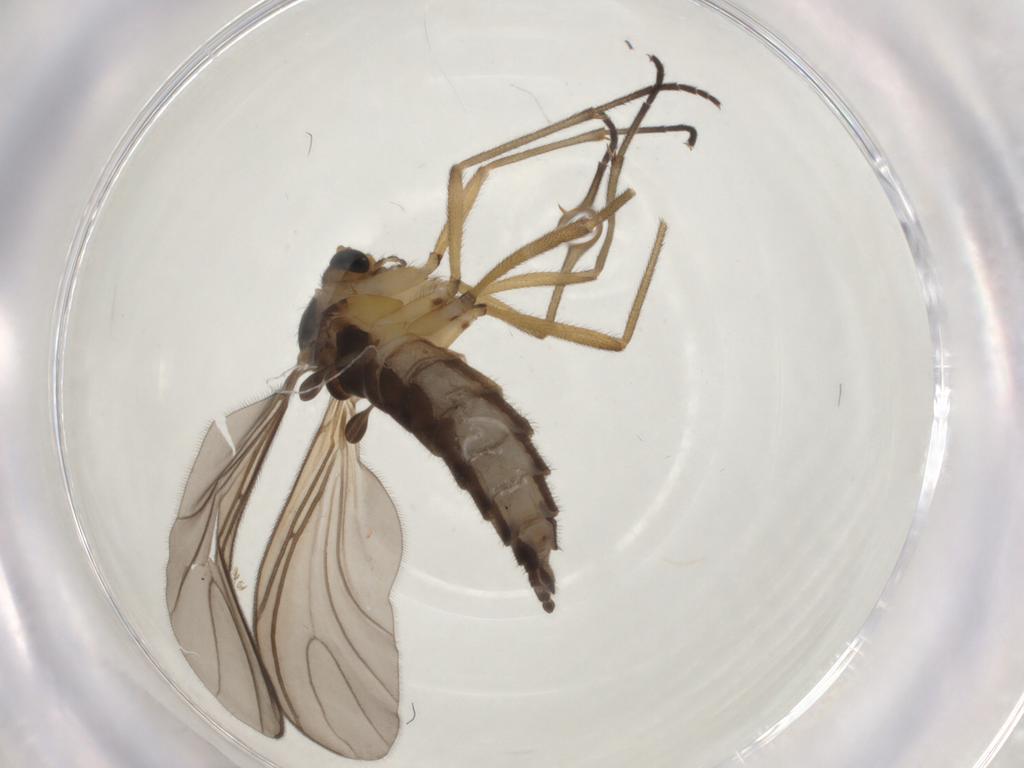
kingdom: Animalia
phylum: Arthropoda
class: Insecta
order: Diptera
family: Sciaridae
